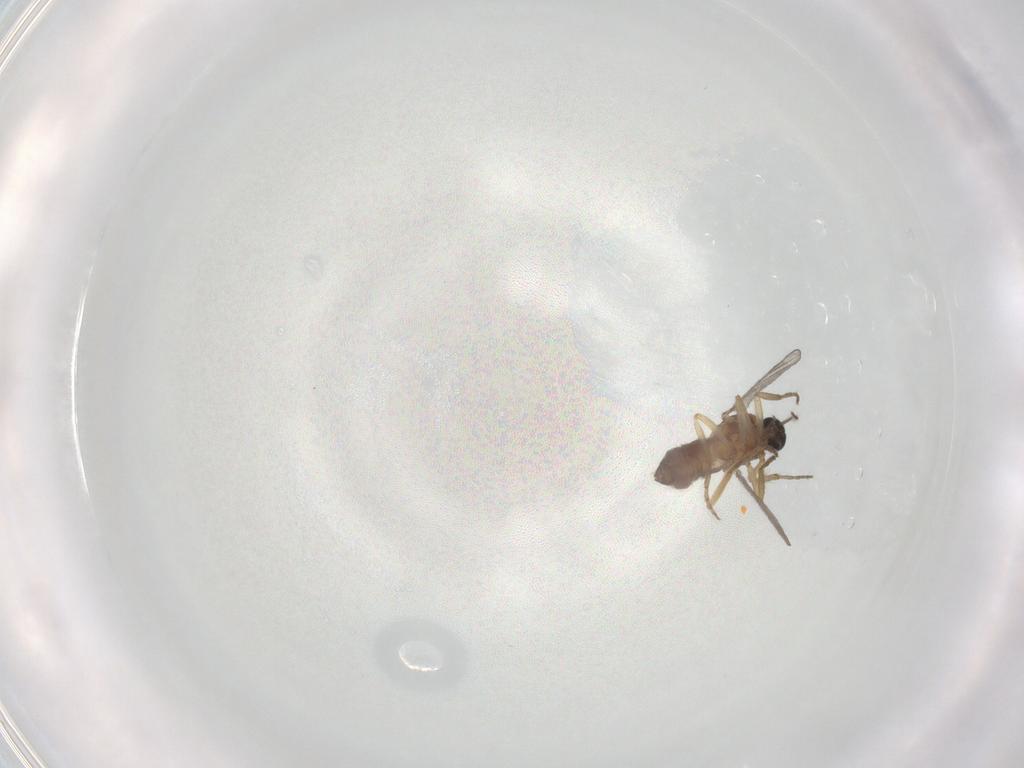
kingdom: Animalia
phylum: Arthropoda
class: Insecta
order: Diptera
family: Ceratopogonidae
